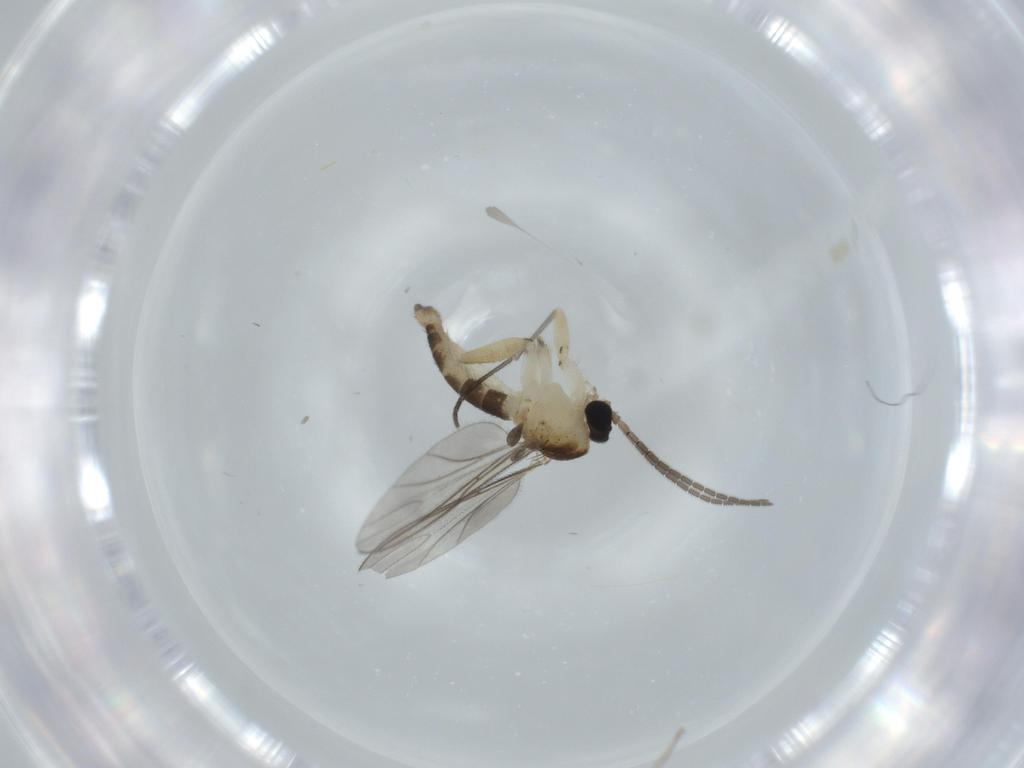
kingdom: Animalia
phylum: Arthropoda
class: Insecta
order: Diptera
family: Sciaridae
